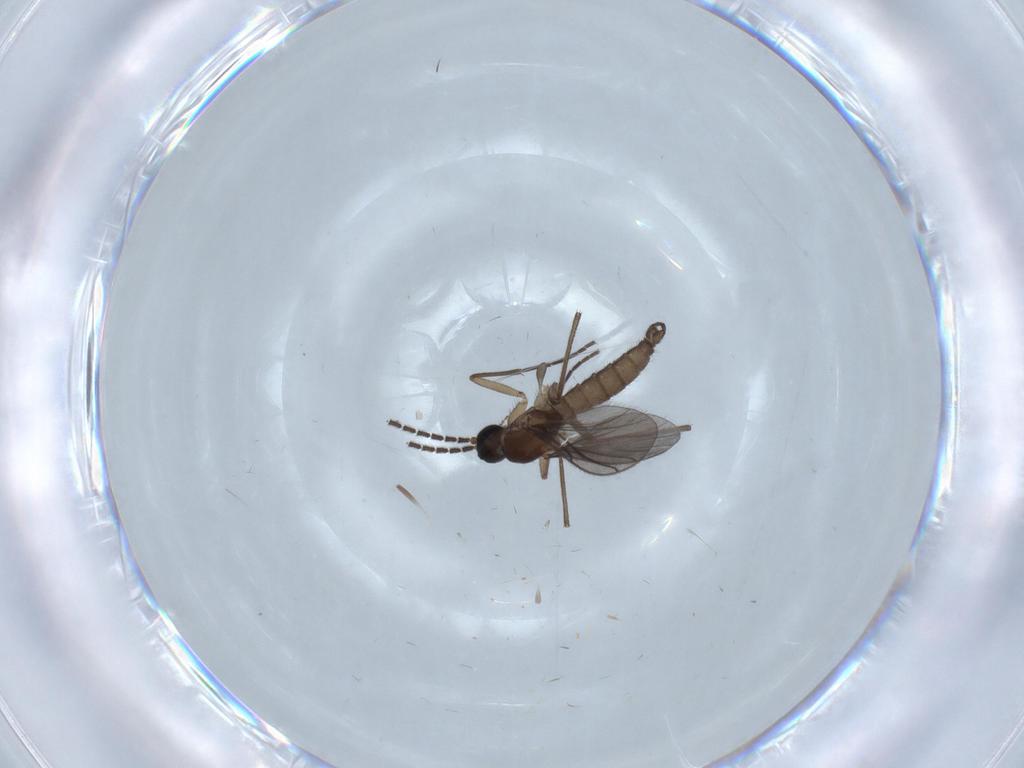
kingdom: Animalia
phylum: Arthropoda
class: Insecta
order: Diptera
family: Sciaridae
